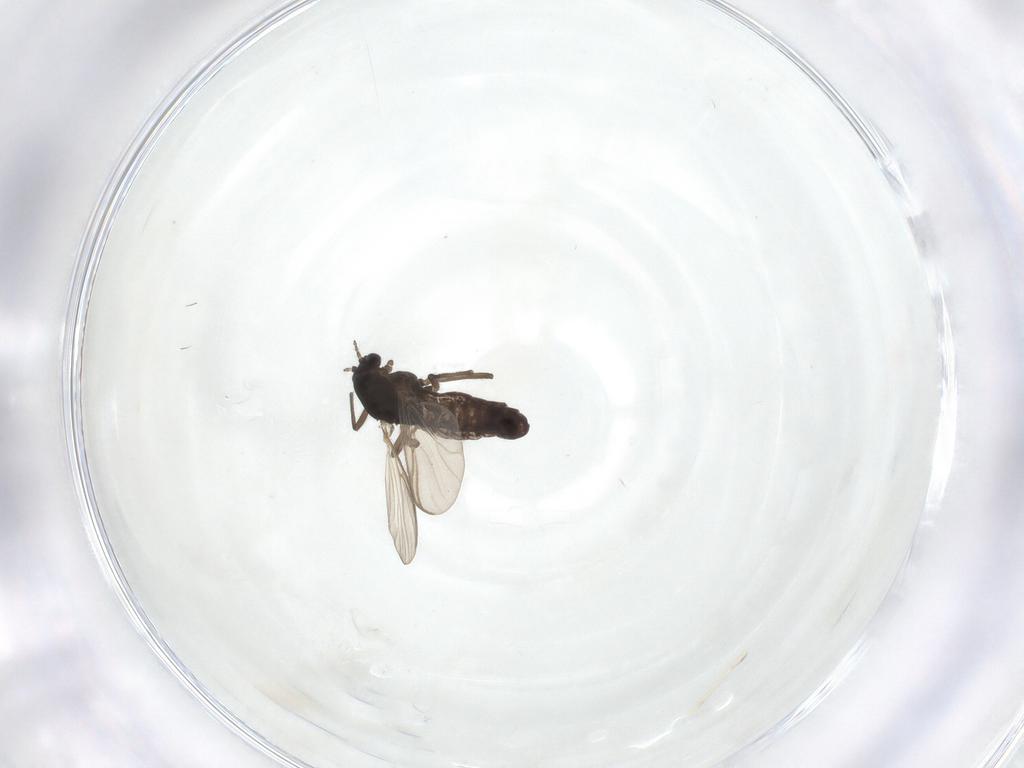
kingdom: Animalia
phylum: Arthropoda
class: Insecta
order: Diptera
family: Chironomidae
